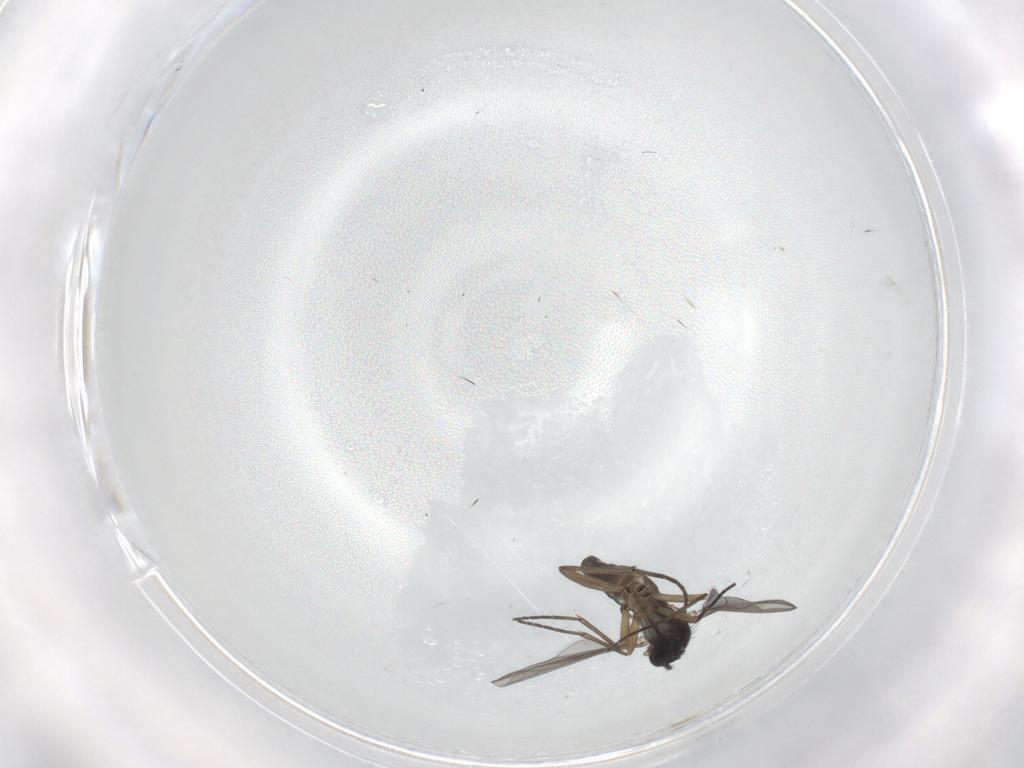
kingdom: Animalia
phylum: Arthropoda
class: Insecta
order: Diptera
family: Sciaridae
